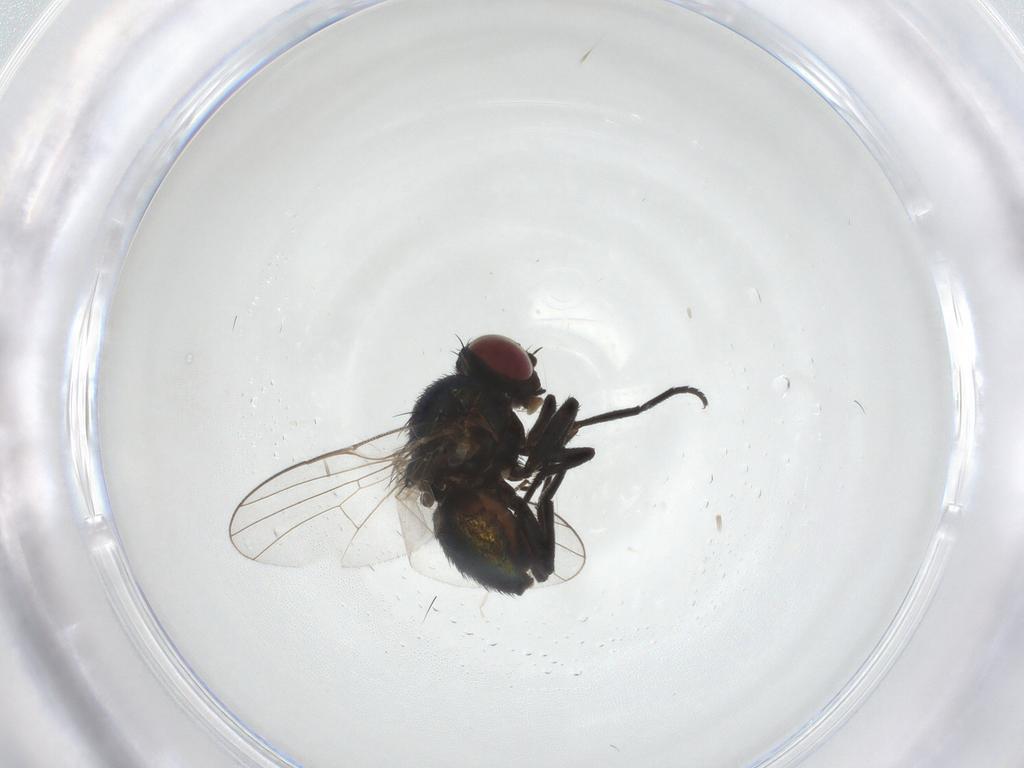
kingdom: Animalia
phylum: Arthropoda
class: Insecta
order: Diptera
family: Agromyzidae
